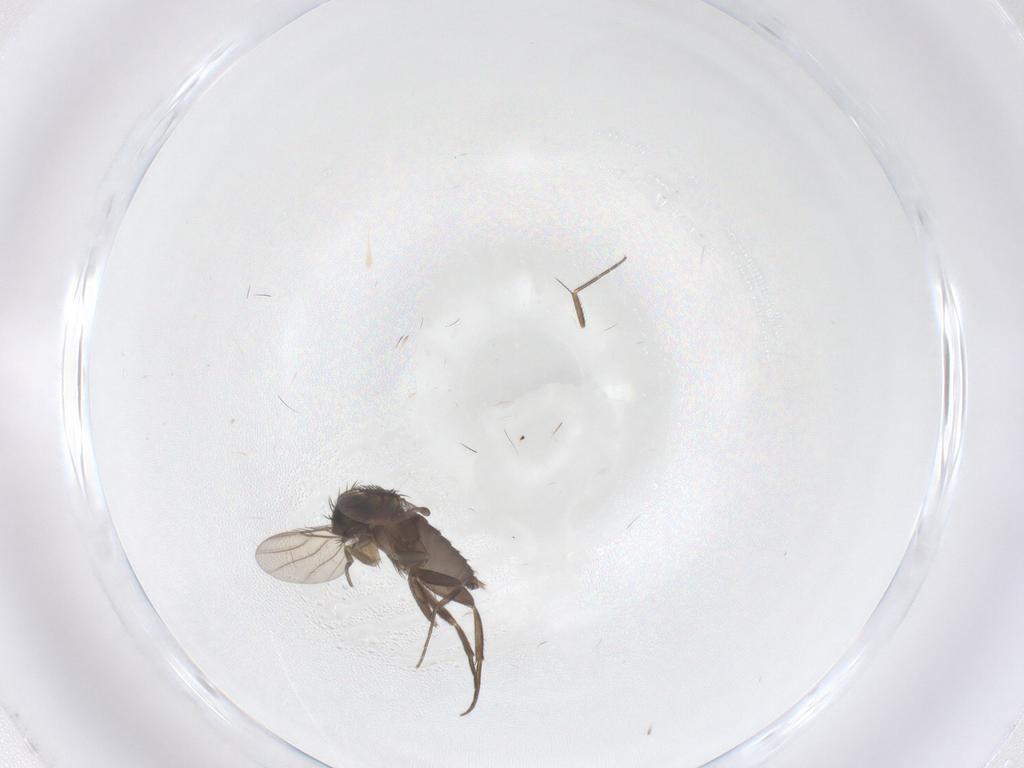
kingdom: Animalia
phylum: Arthropoda
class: Insecta
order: Diptera
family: Phoridae
